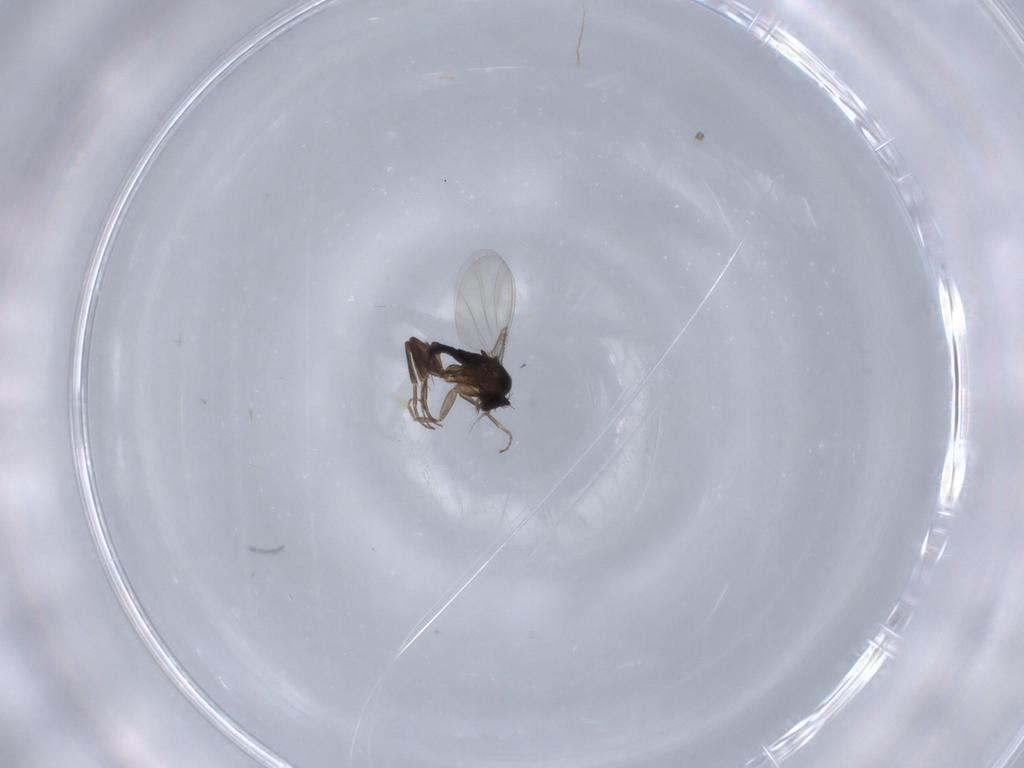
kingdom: Animalia
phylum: Arthropoda
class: Insecta
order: Diptera
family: Phoridae
